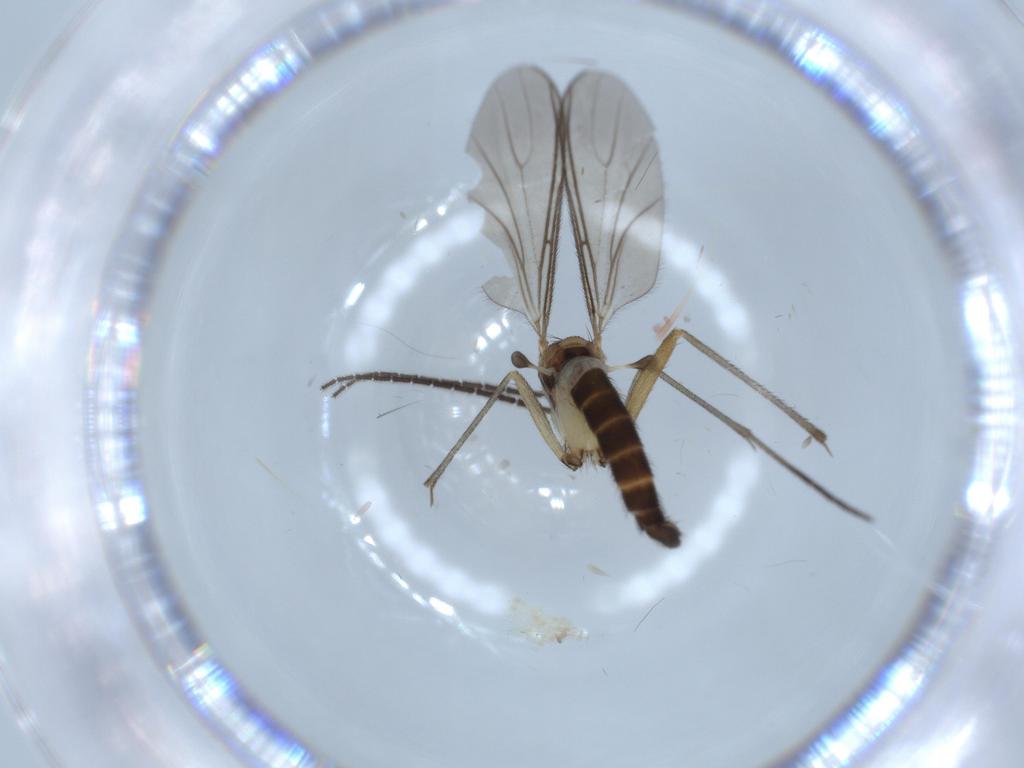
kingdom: Animalia
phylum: Arthropoda
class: Insecta
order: Diptera
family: Sciaridae
